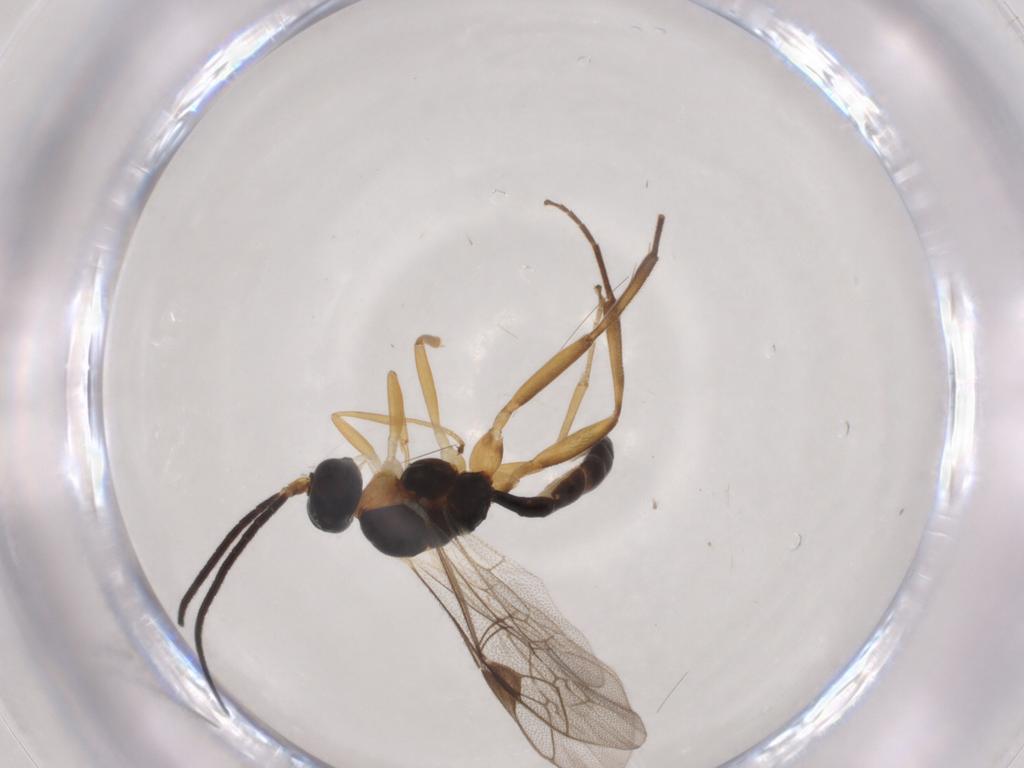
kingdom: Animalia
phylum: Arthropoda
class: Insecta
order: Hymenoptera
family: Ichneumonidae
